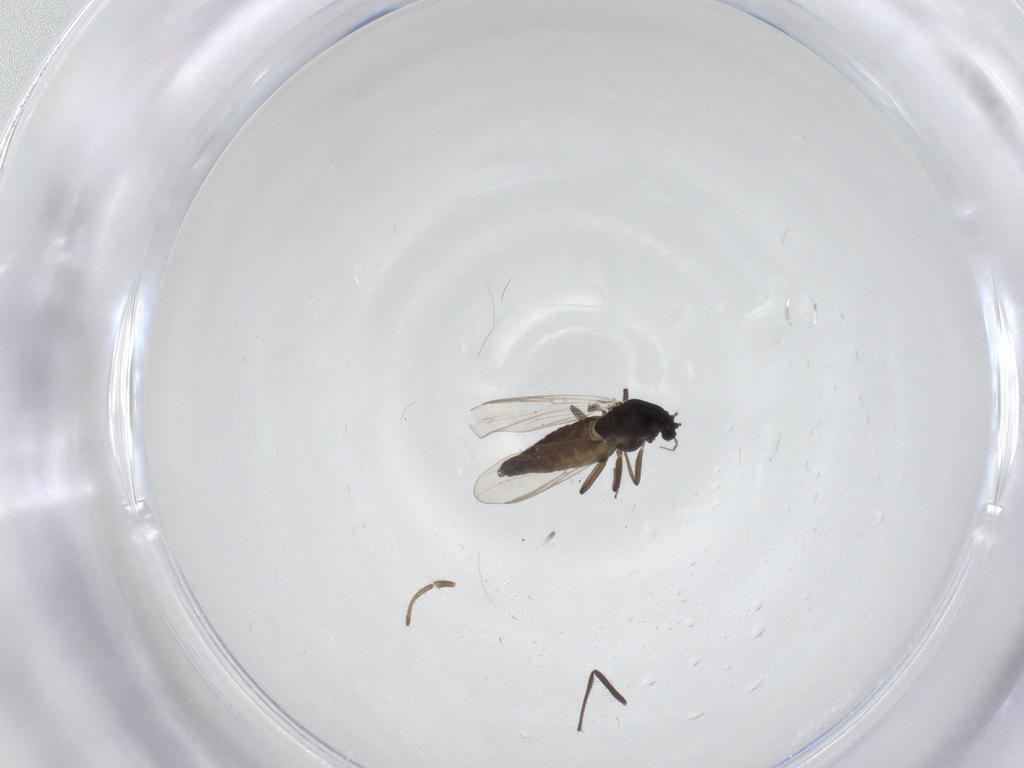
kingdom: Animalia
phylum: Arthropoda
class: Insecta
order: Diptera
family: Chironomidae
